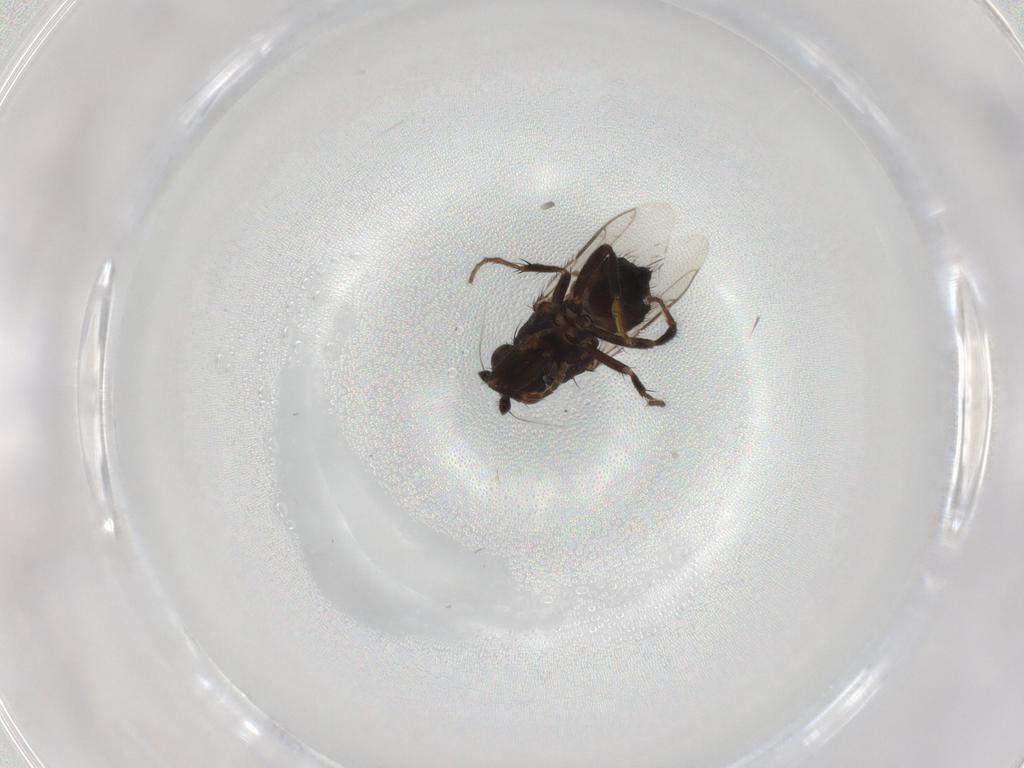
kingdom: Animalia
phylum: Arthropoda
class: Insecta
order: Diptera
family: Sphaeroceridae
